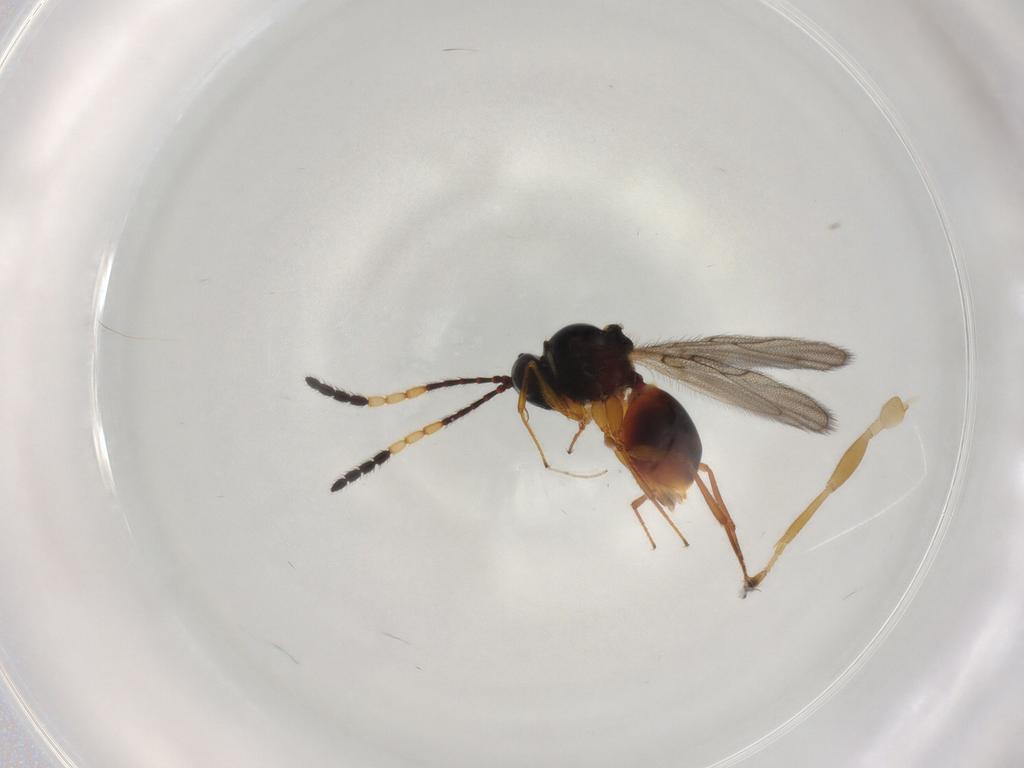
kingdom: Animalia
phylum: Arthropoda
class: Insecta
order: Hymenoptera
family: Figitidae
